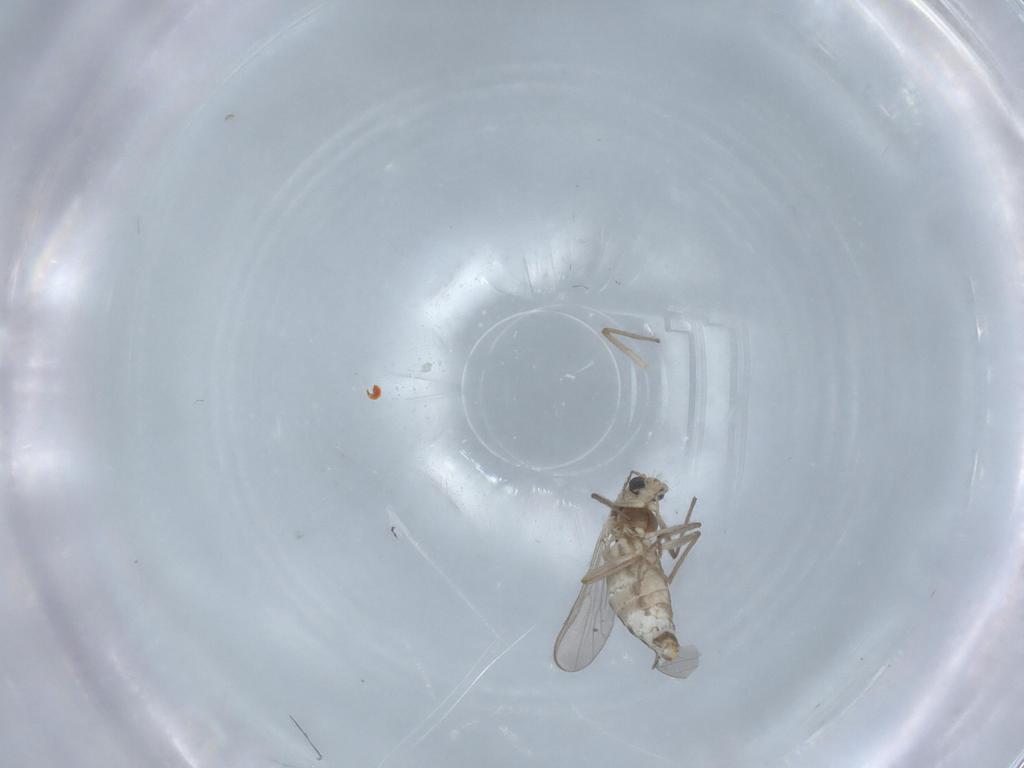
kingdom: Animalia
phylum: Arthropoda
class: Insecta
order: Diptera
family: Chironomidae
